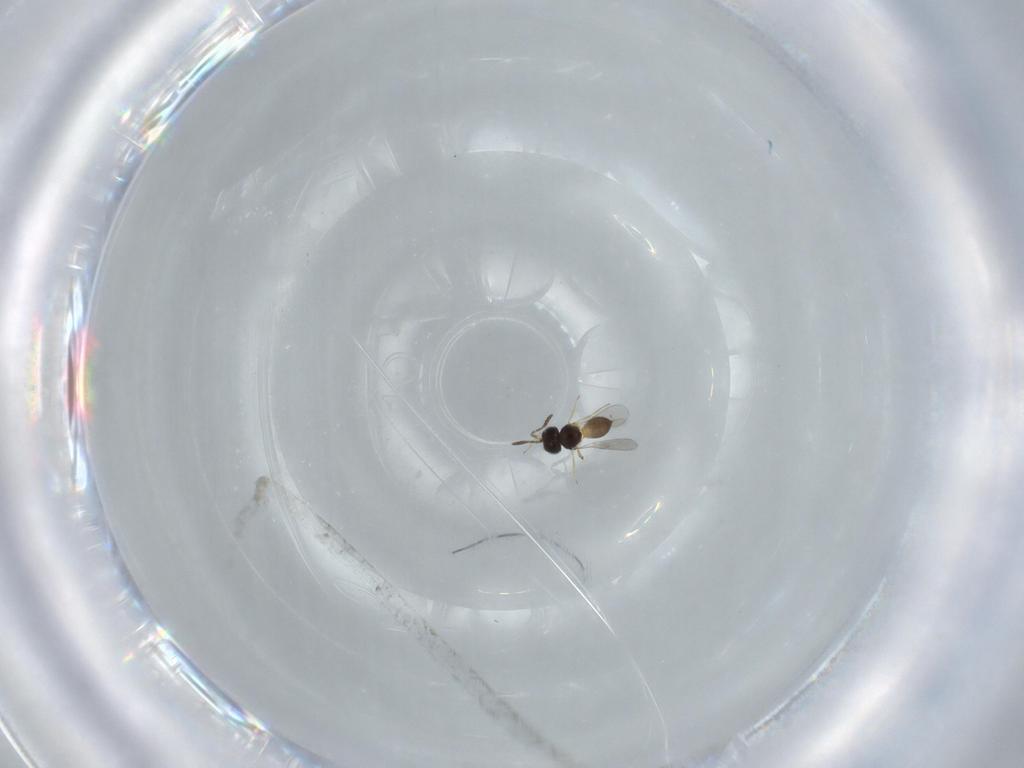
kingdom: Animalia
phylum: Arthropoda
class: Insecta
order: Hymenoptera
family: Scelionidae
